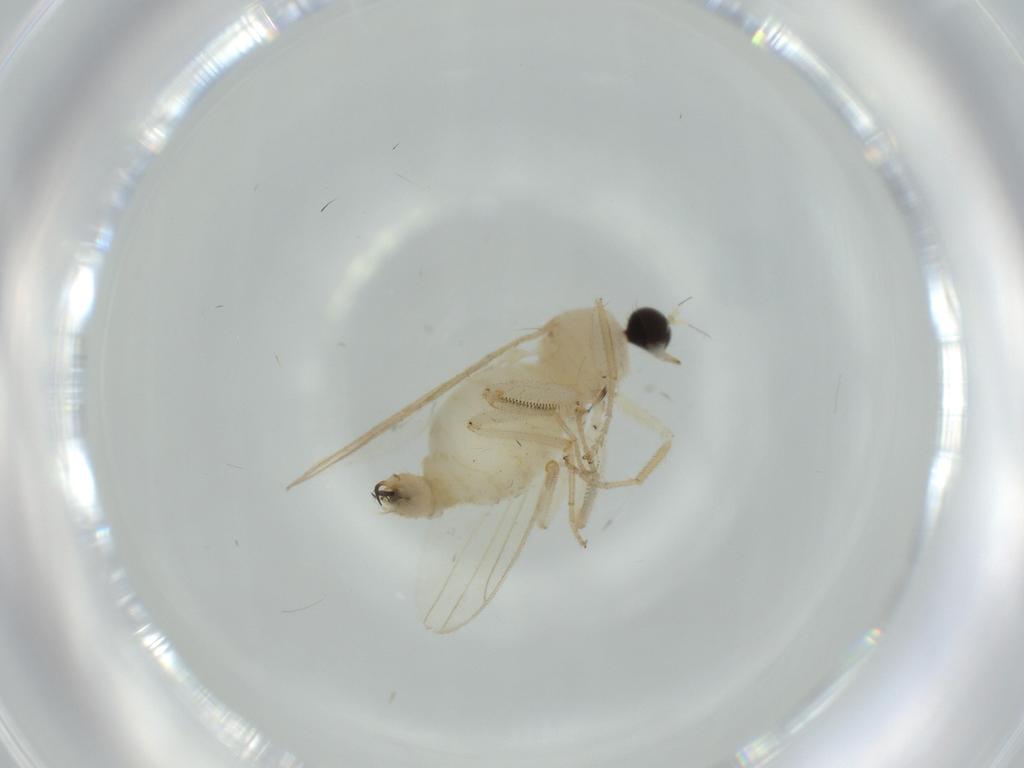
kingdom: Animalia
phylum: Arthropoda
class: Insecta
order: Diptera
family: Hybotidae
